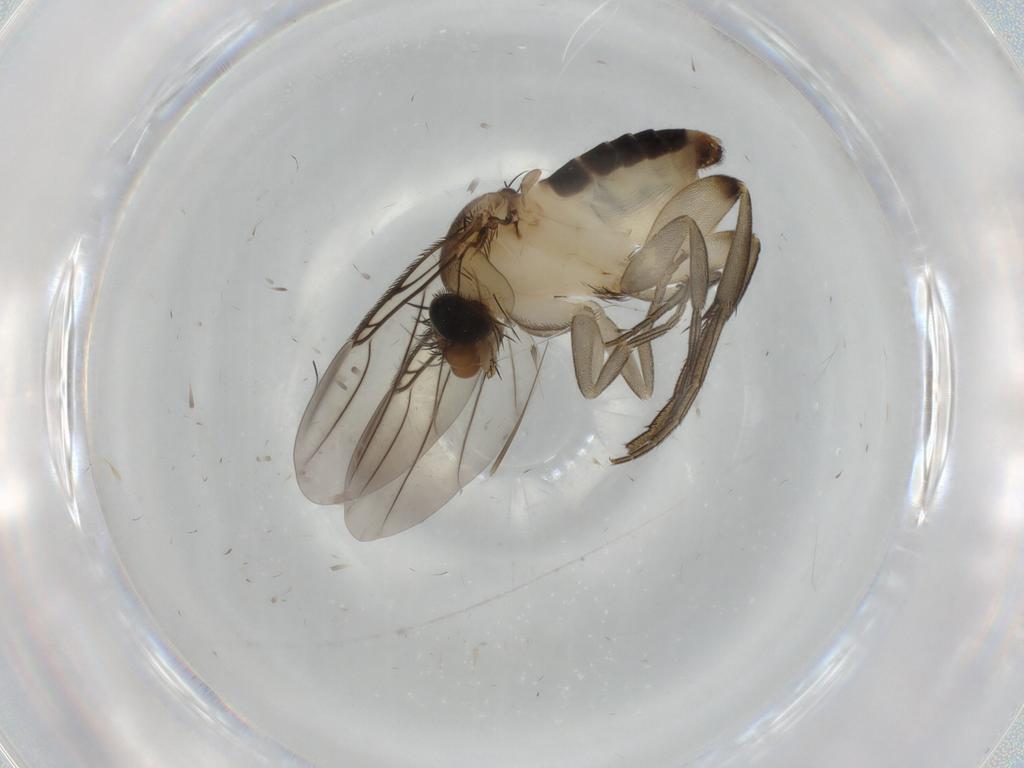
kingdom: Animalia
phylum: Arthropoda
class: Insecta
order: Diptera
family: Phoridae
